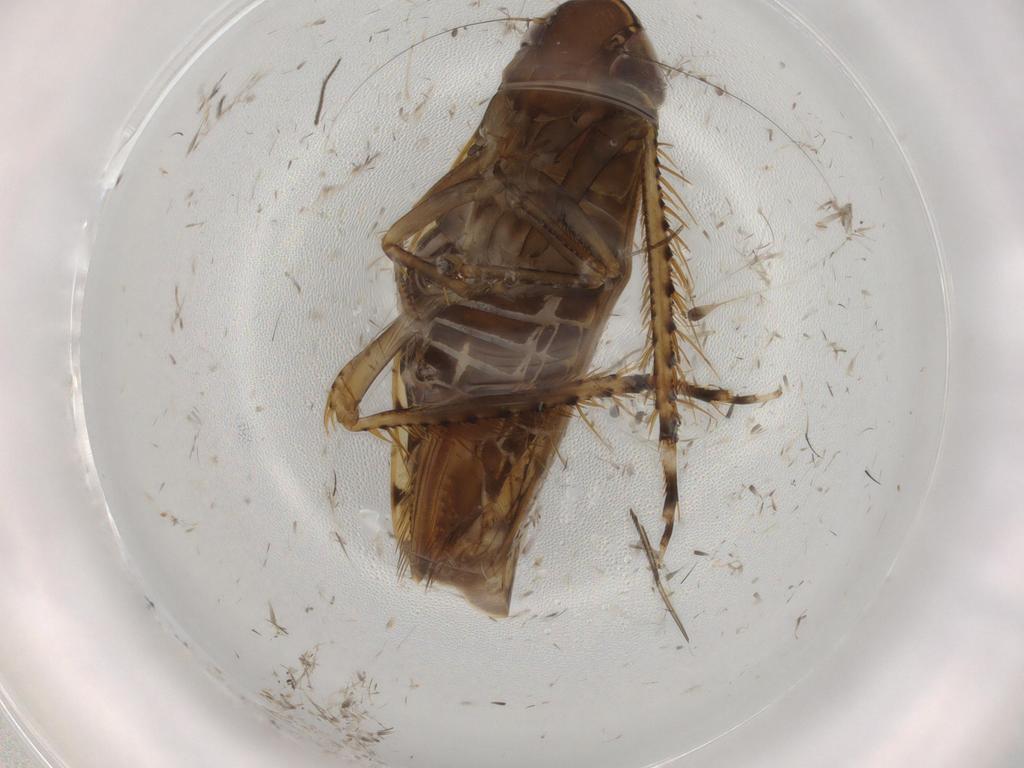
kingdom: Animalia
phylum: Arthropoda
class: Insecta
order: Hemiptera
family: Cicadellidae
